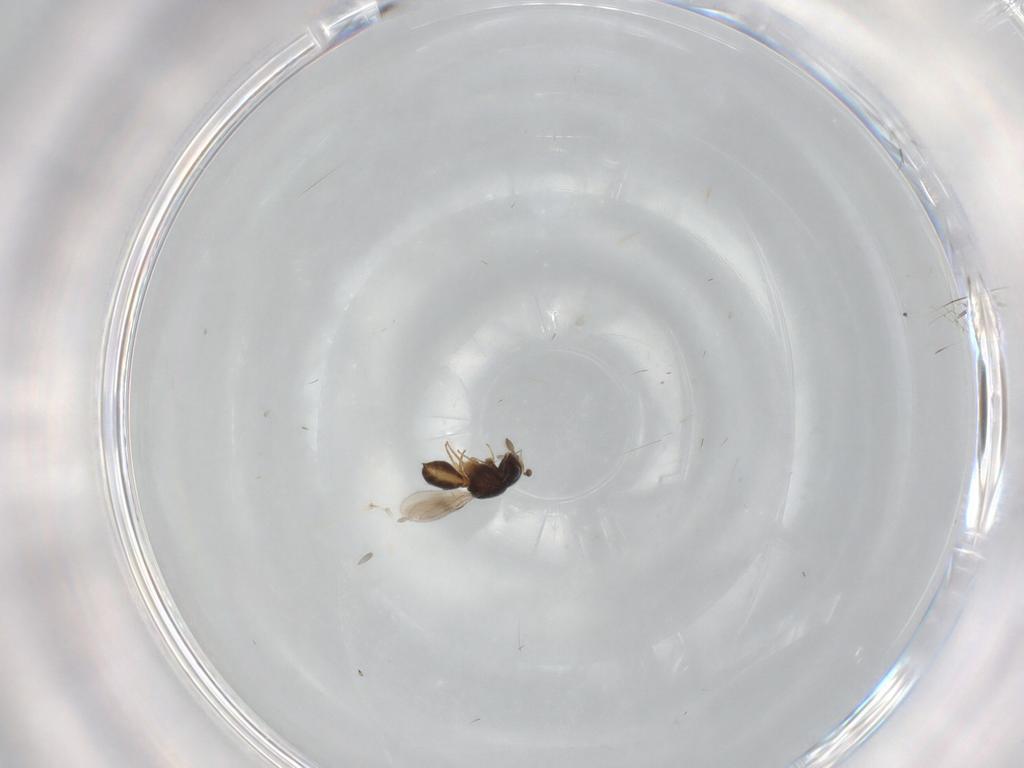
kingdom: Animalia
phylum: Arthropoda
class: Insecta
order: Hymenoptera
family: Scelionidae
